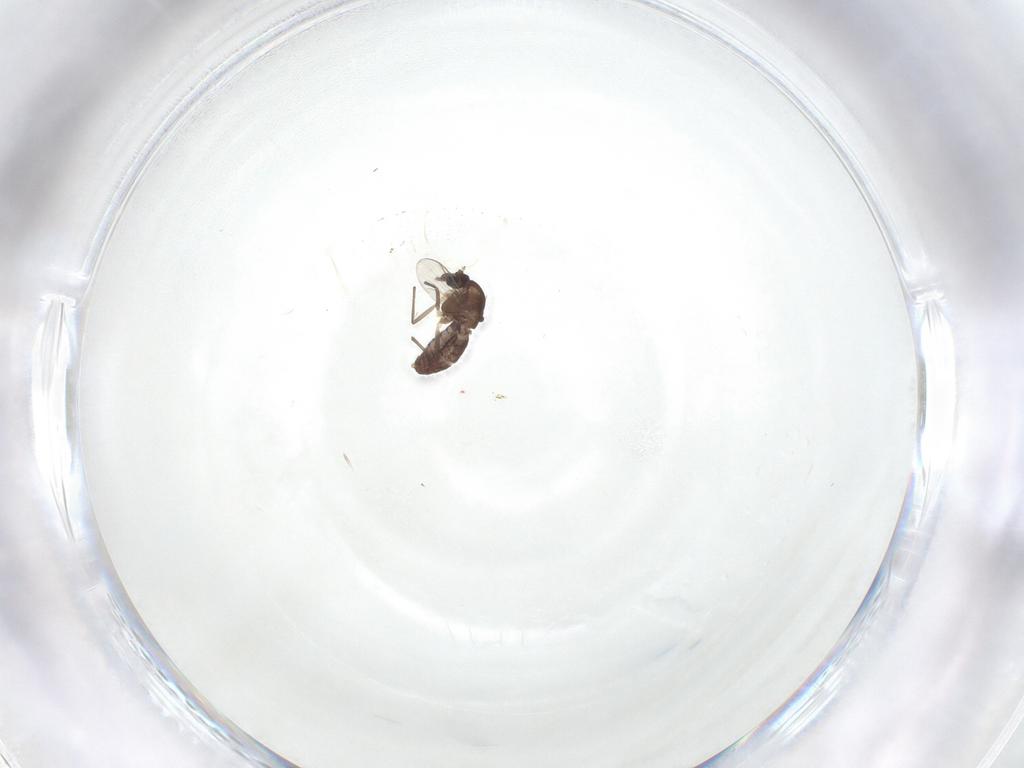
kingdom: Animalia
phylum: Arthropoda
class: Insecta
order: Diptera
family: Chironomidae
